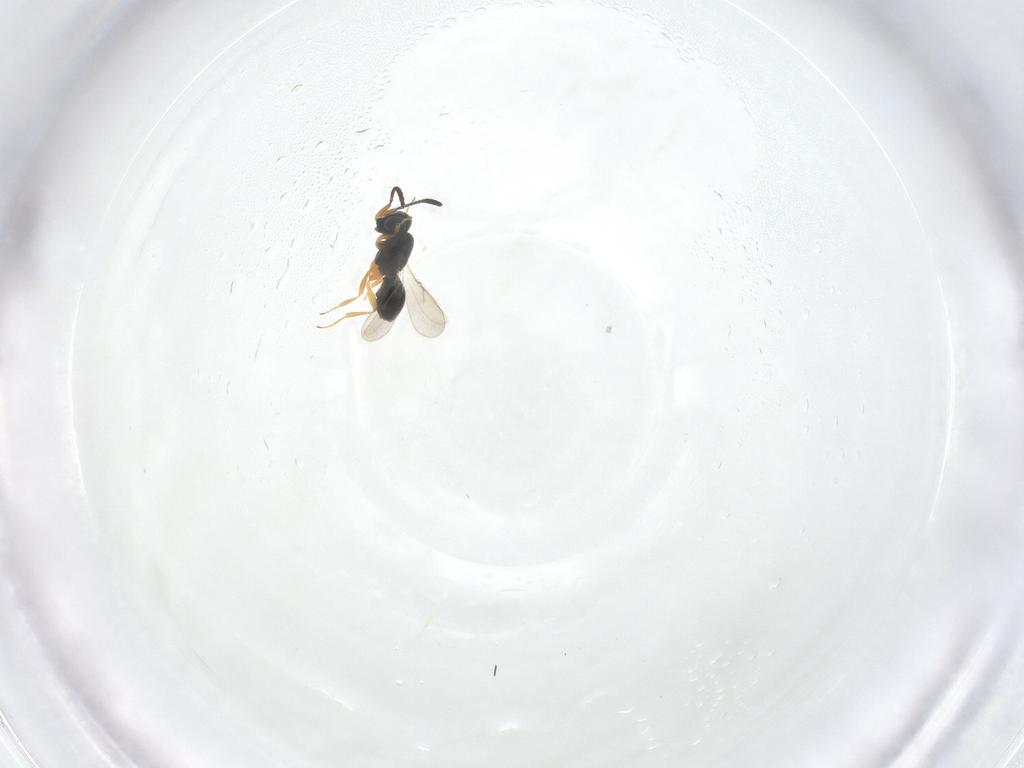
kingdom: Animalia
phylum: Arthropoda
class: Insecta
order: Hymenoptera
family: Scelionidae
